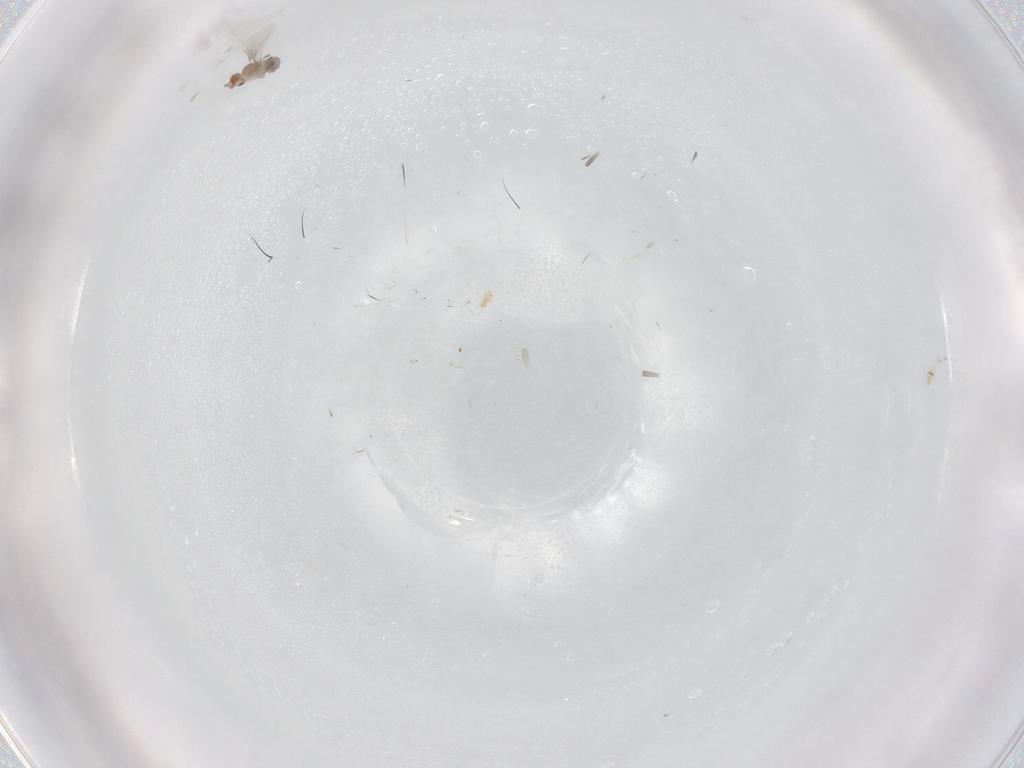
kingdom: Animalia
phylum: Arthropoda
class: Insecta
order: Diptera
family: Cecidomyiidae
